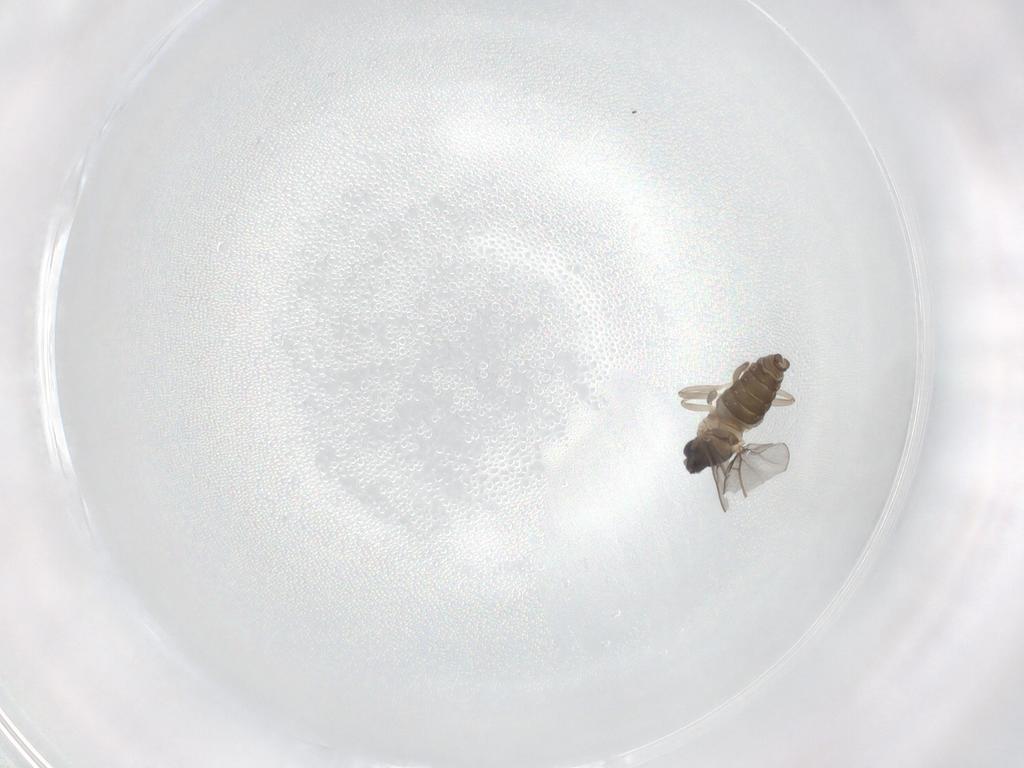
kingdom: Animalia
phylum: Arthropoda
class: Insecta
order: Diptera
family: Cecidomyiidae
